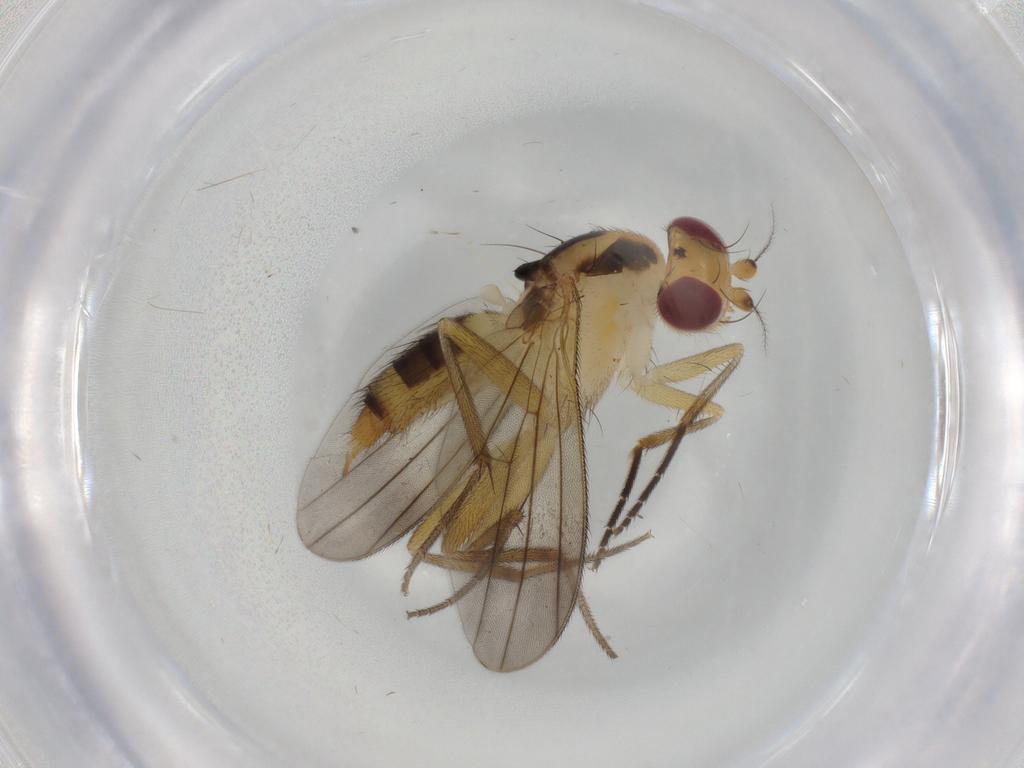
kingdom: Animalia
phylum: Arthropoda
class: Insecta
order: Diptera
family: Clusiidae
